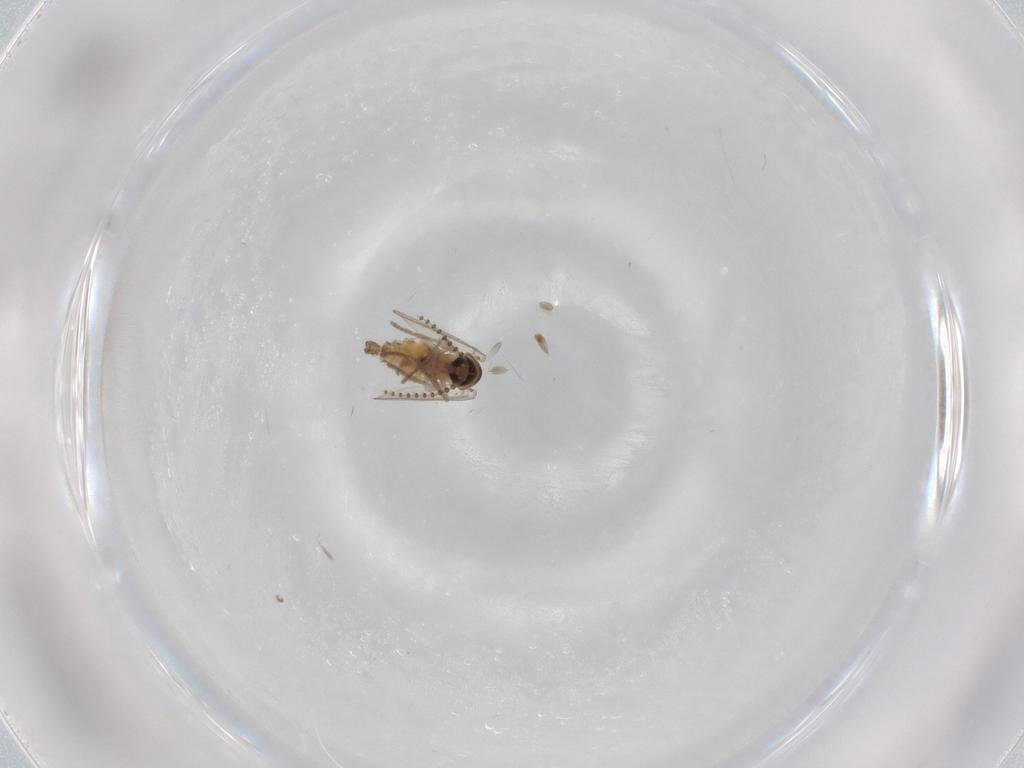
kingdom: Animalia
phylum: Arthropoda
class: Insecta
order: Diptera
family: Psychodidae
